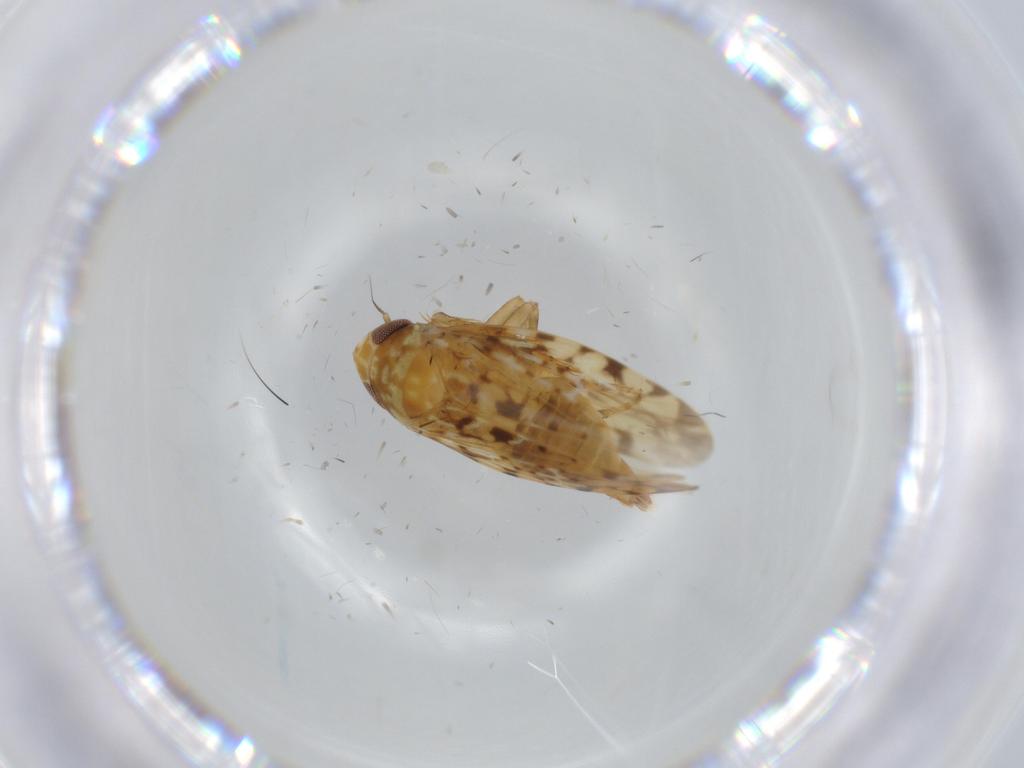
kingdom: Animalia
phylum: Arthropoda
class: Insecta
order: Hemiptera
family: Cicadellidae
